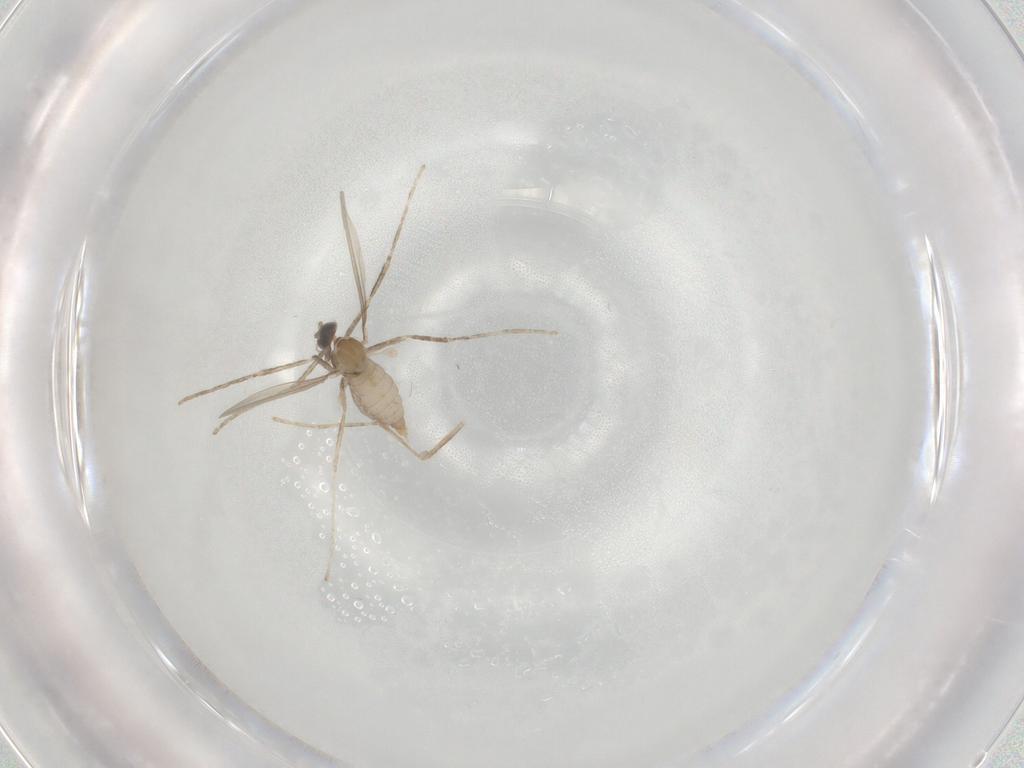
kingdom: Animalia
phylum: Arthropoda
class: Insecta
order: Diptera
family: Cecidomyiidae
